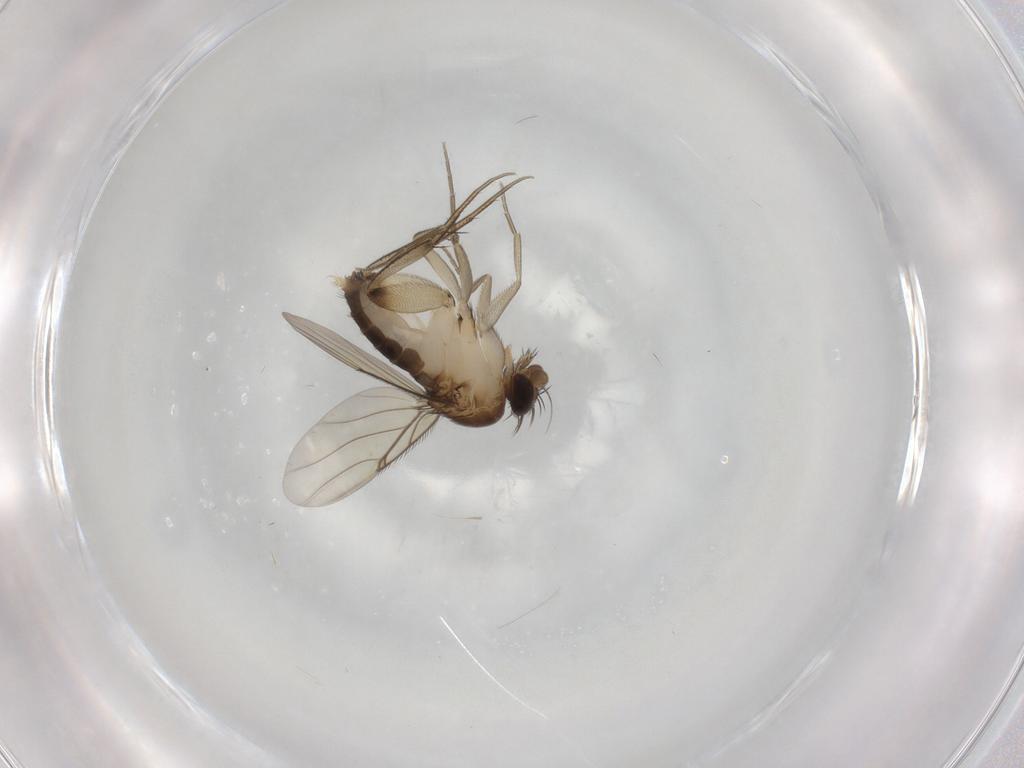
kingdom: Animalia
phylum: Arthropoda
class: Insecta
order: Diptera
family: Phoridae
